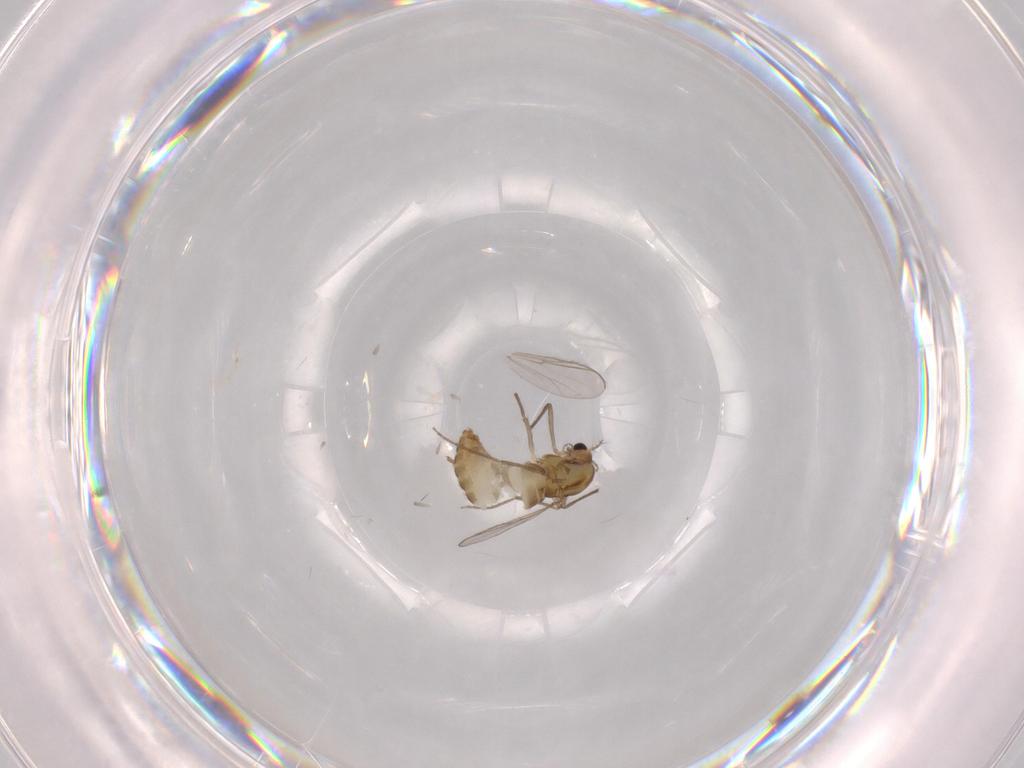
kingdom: Animalia
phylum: Arthropoda
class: Insecta
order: Diptera
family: Chironomidae
